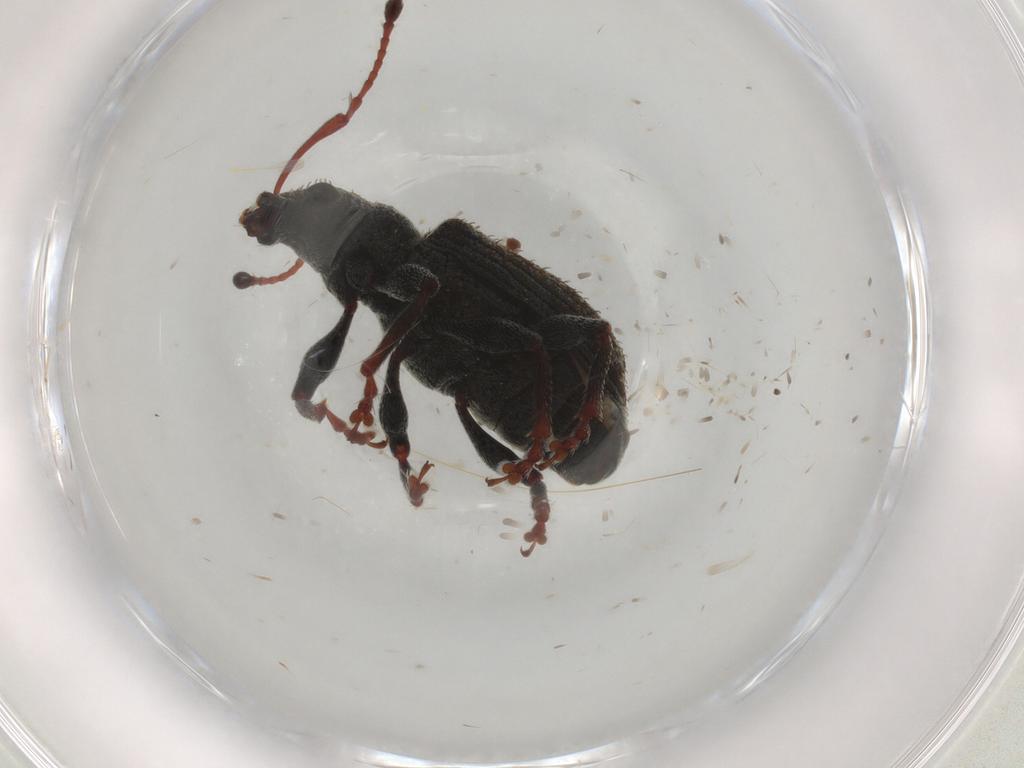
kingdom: Animalia
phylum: Arthropoda
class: Insecta
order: Coleoptera
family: Curculionidae
